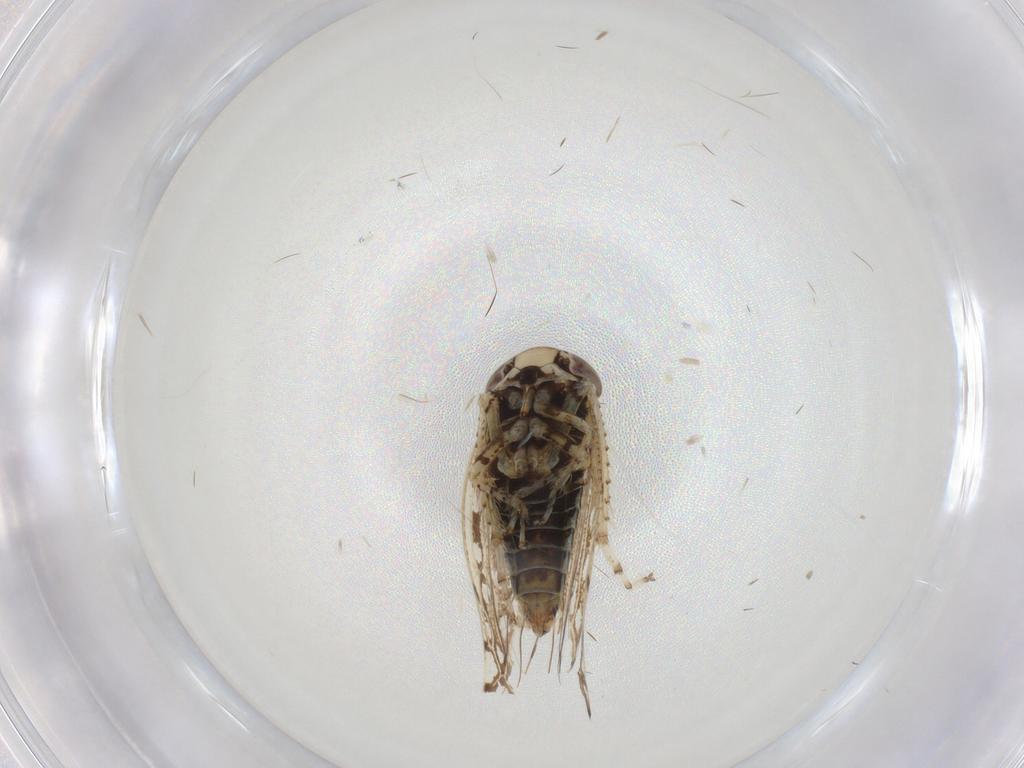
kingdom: Animalia
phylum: Arthropoda
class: Insecta
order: Hemiptera
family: Cicadellidae
